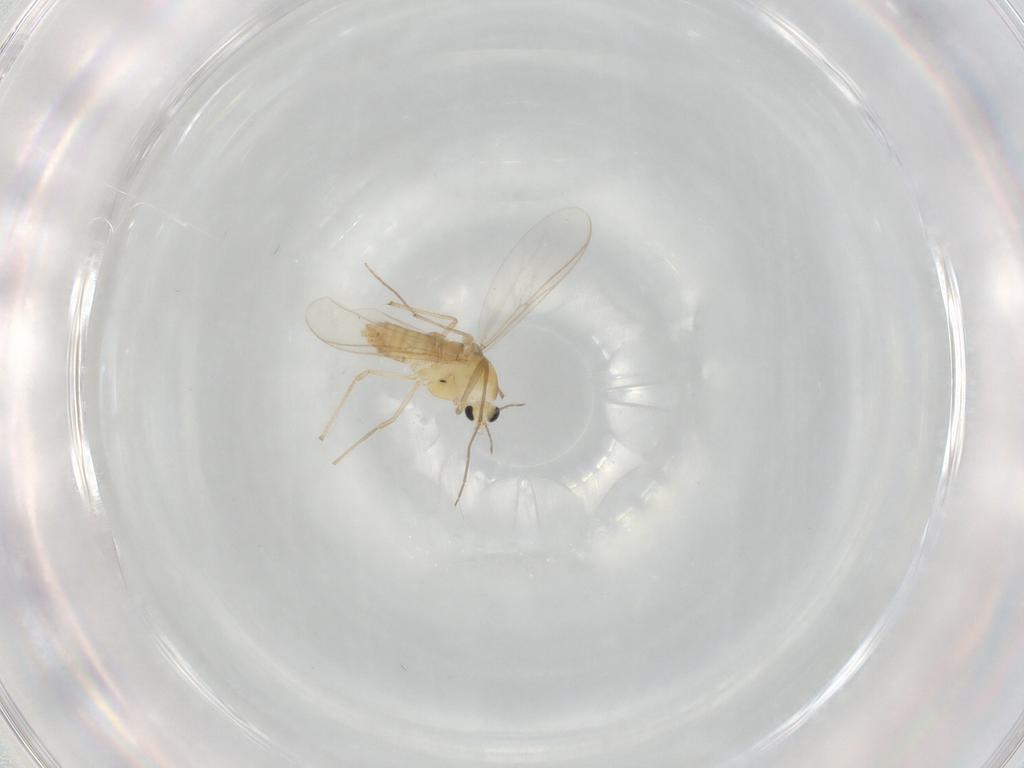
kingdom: Animalia
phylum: Arthropoda
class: Insecta
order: Diptera
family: Chironomidae
